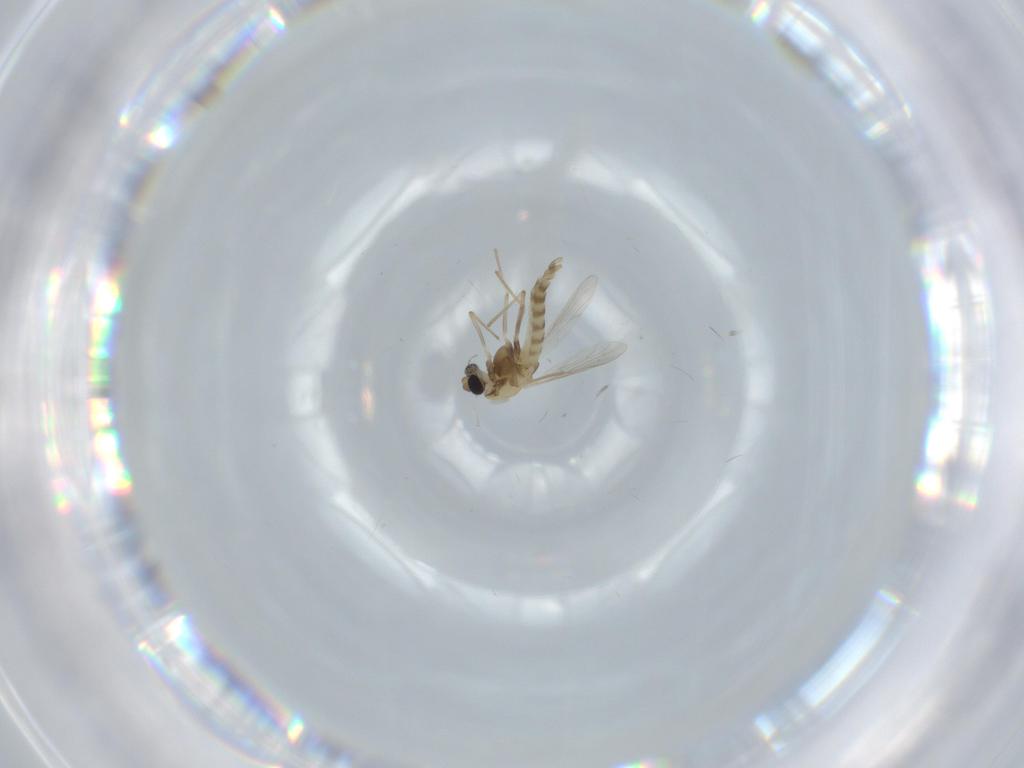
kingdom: Animalia
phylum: Arthropoda
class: Insecta
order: Diptera
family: Chironomidae
